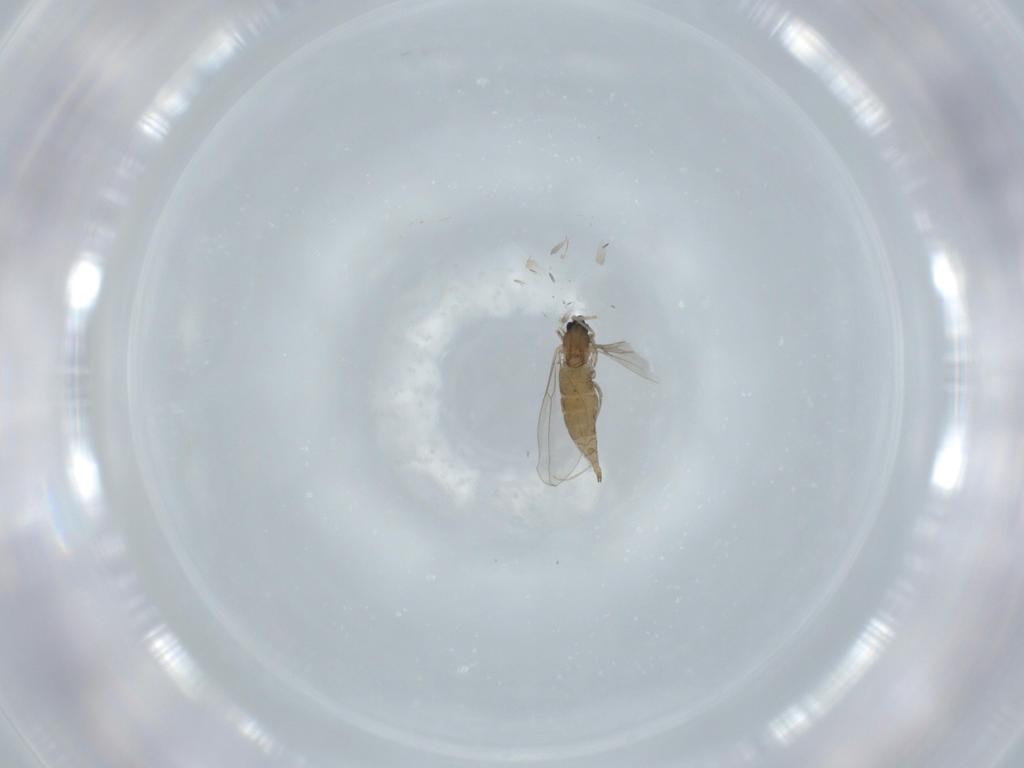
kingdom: Animalia
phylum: Arthropoda
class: Insecta
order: Diptera
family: Cecidomyiidae
